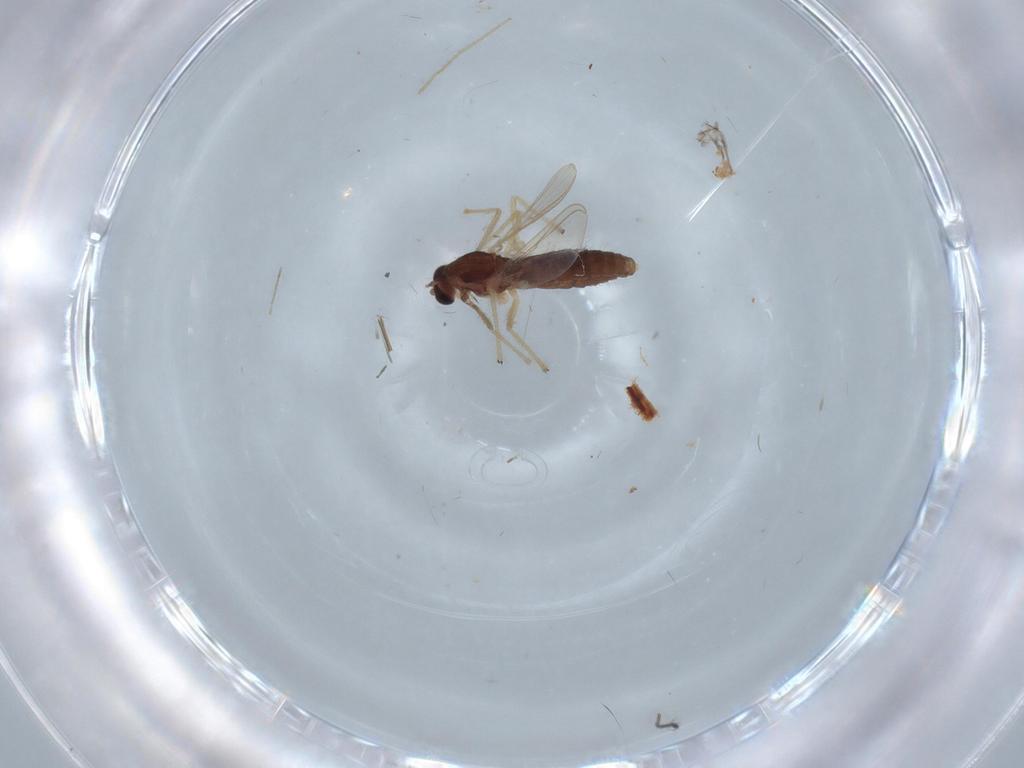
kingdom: Animalia
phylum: Arthropoda
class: Insecta
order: Diptera
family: Chironomidae
